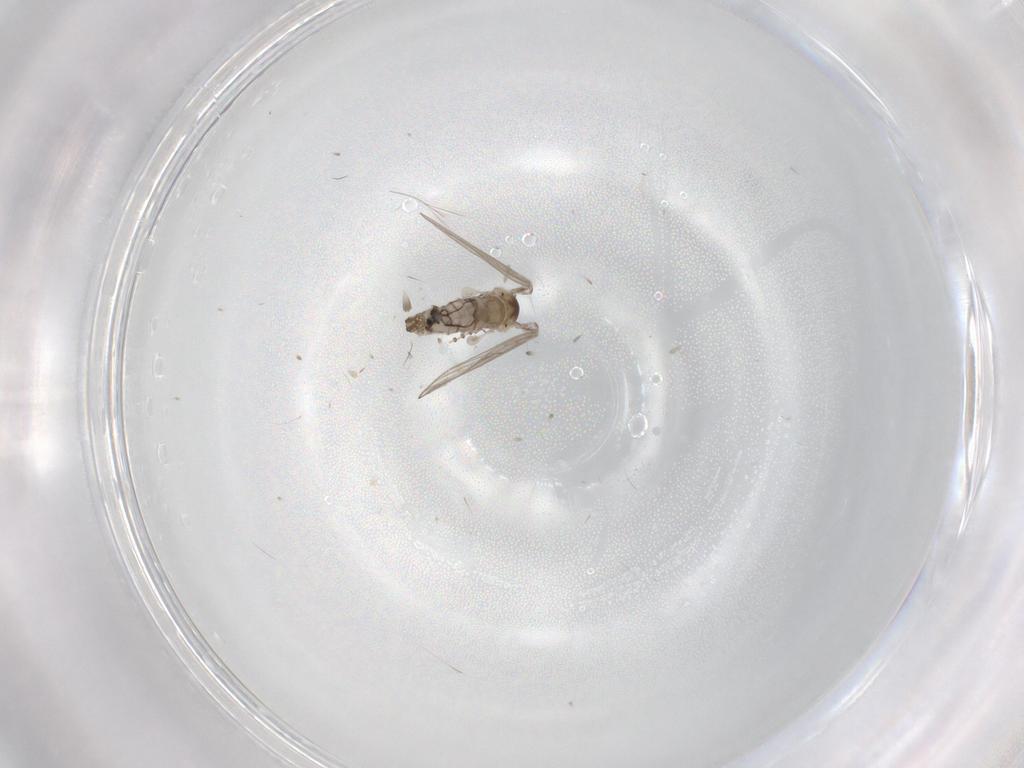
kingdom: Animalia
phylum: Arthropoda
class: Insecta
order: Diptera
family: Psychodidae
